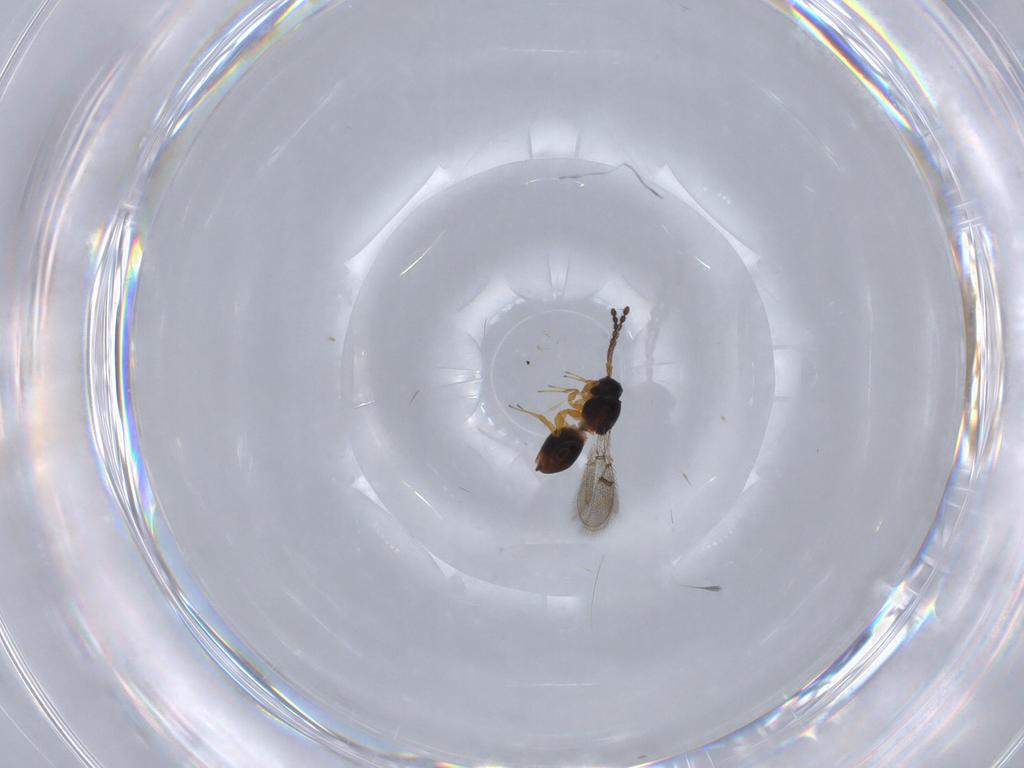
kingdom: Animalia
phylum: Arthropoda
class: Insecta
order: Hymenoptera
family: Figitidae
